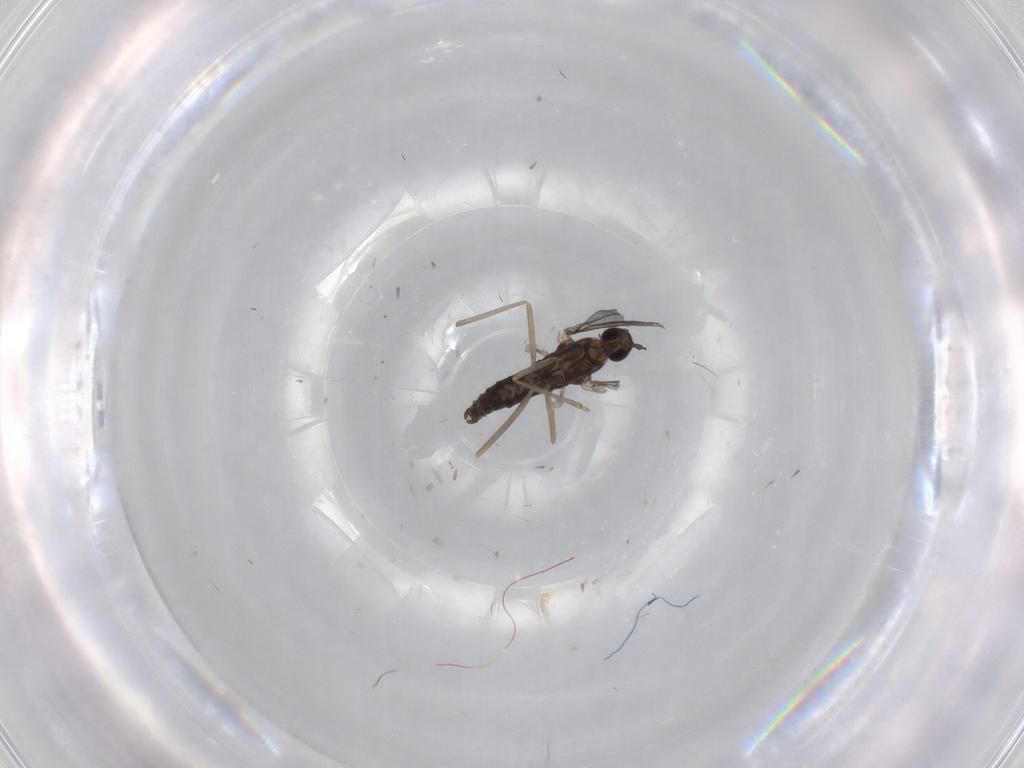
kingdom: Animalia
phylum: Arthropoda
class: Insecta
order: Diptera
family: Cecidomyiidae
